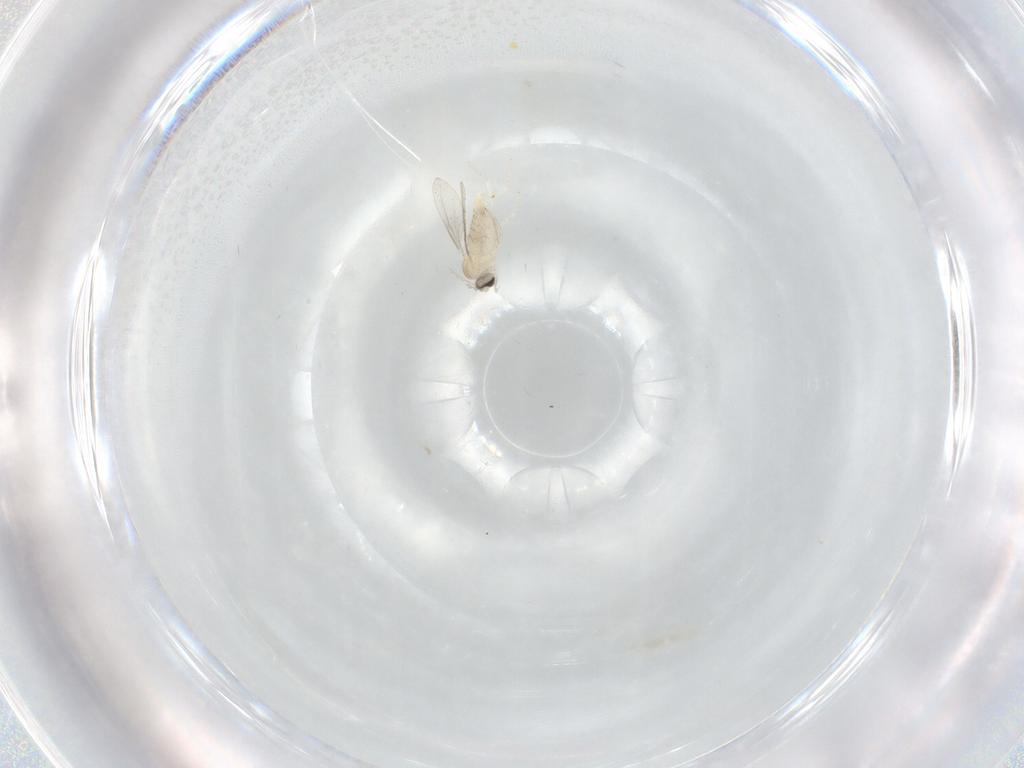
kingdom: Animalia
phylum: Arthropoda
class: Insecta
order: Diptera
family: Cecidomyiidae
